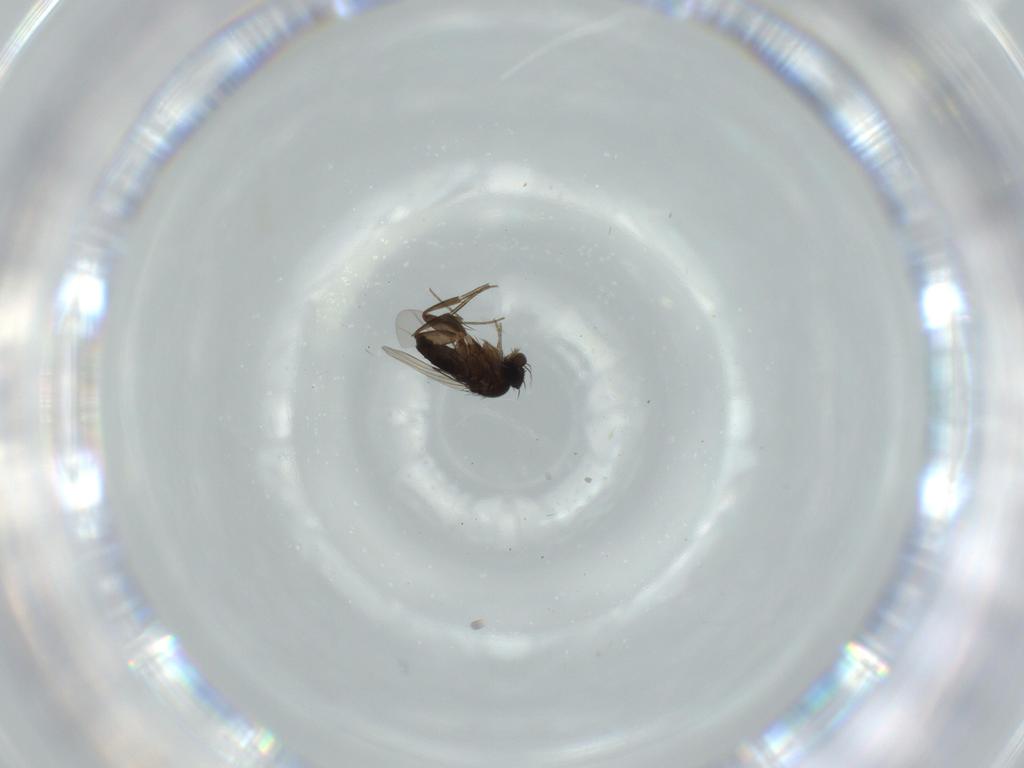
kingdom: Animalia
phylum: Arthropoda
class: Insecta
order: Diptera
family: Phoridae
